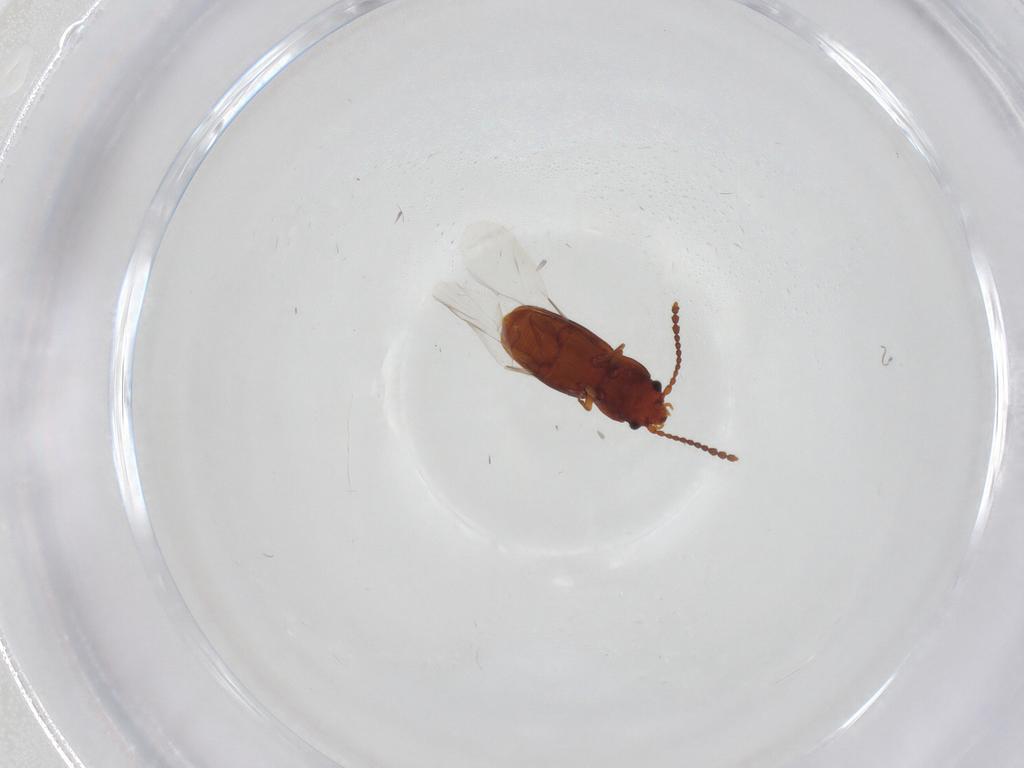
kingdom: Animalia
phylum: Arthropoda
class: Insecta
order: Coleoptera
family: Laemophloeidae
